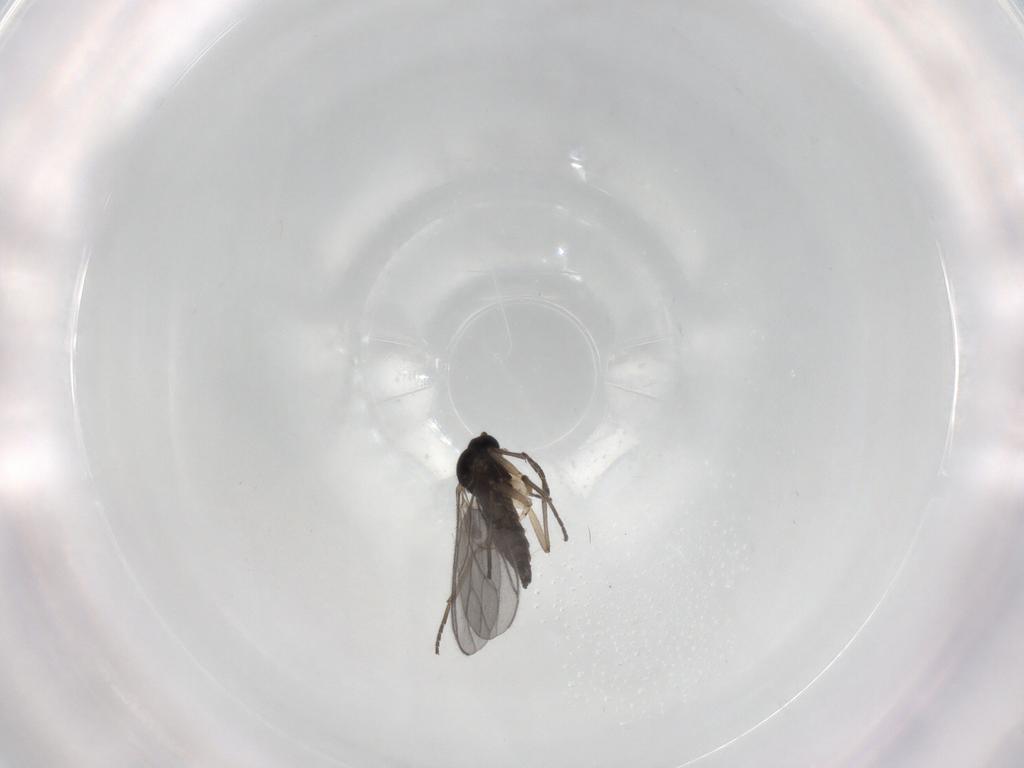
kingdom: Animalia
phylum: Arthropoda
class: Insecta
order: Diptera
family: Sciaridae
